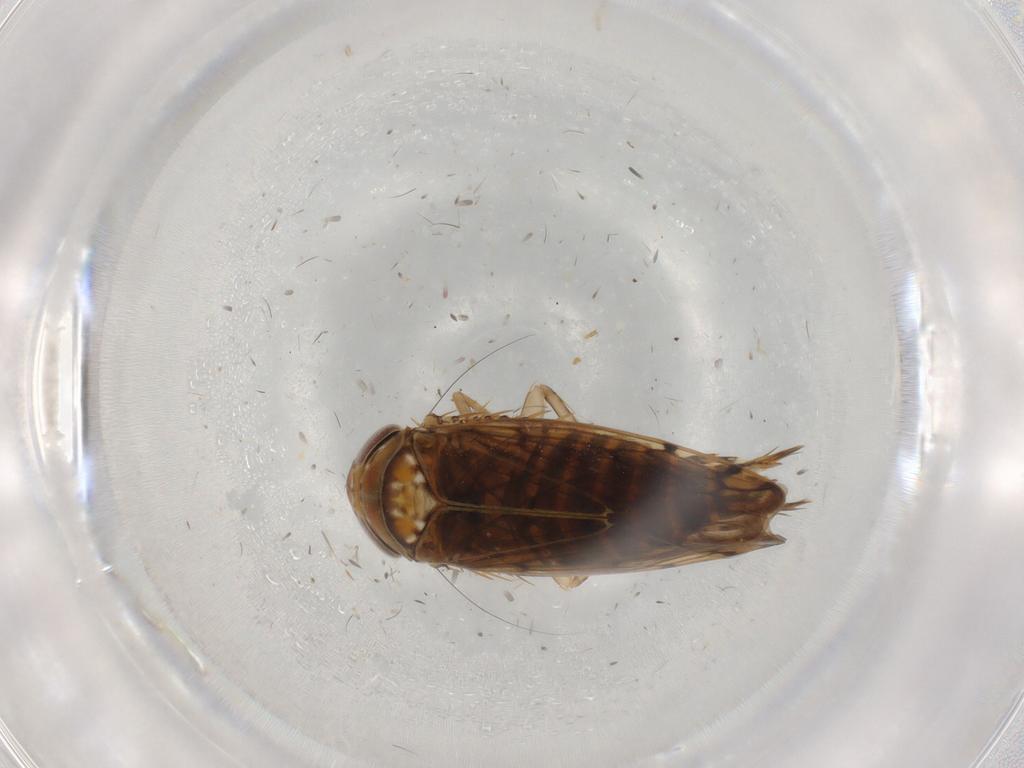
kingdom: Animalia
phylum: Arthropoda
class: Insecta
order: Hemiptera
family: Cicadellidae
